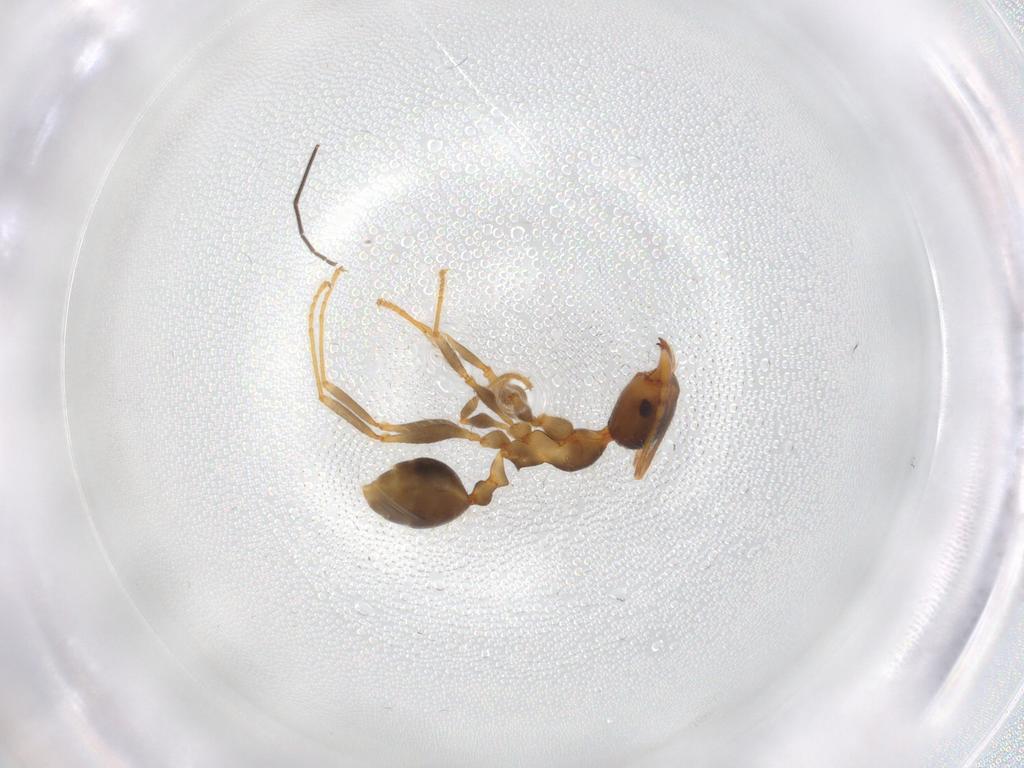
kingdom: Animalia
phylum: Arthropoda
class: Insecta
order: Hymenoptera
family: Formicidae
